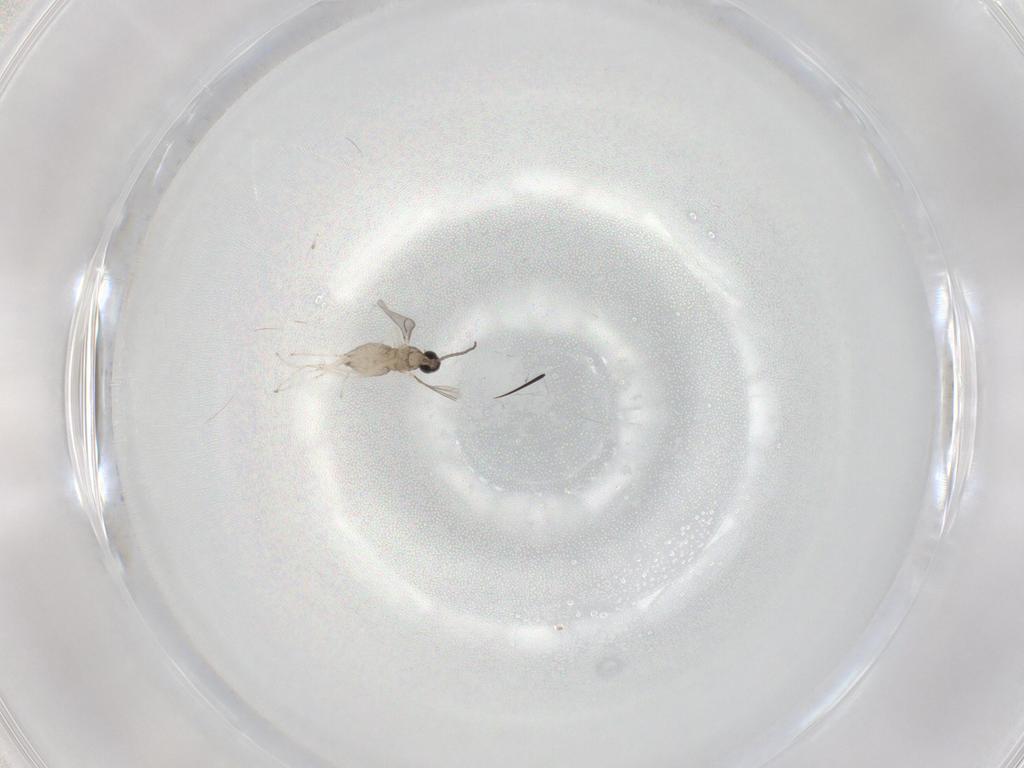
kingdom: Animalia
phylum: Arthropoda
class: Insecta
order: Diptera
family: Cecidomyiidae
